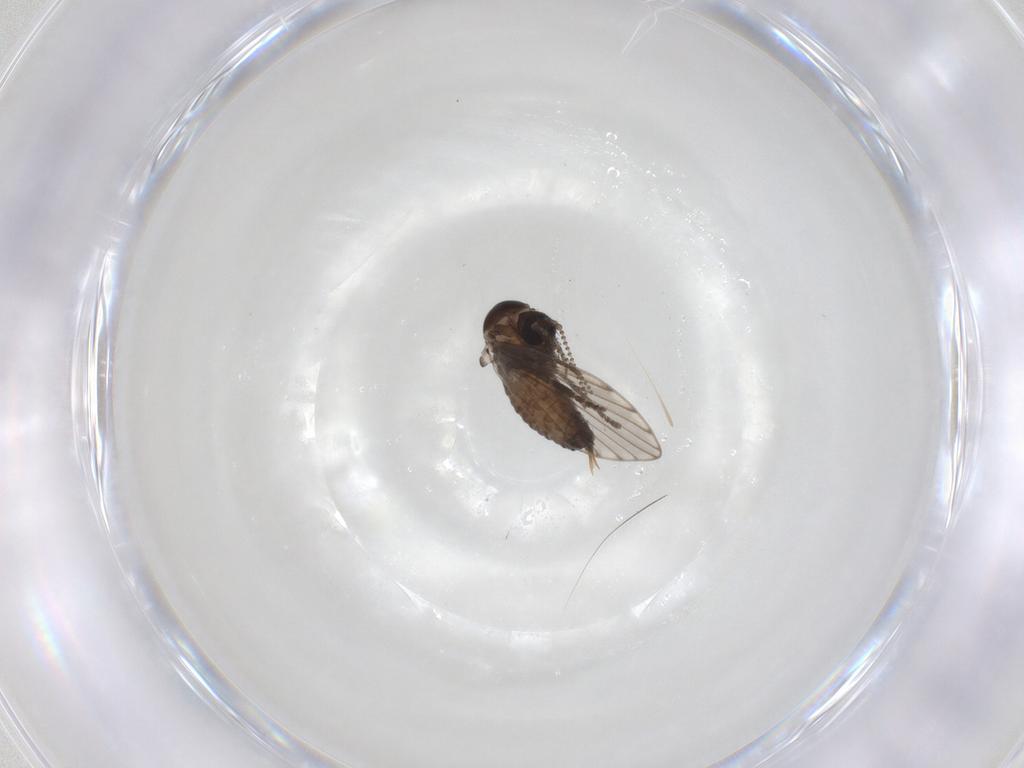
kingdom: Animalia
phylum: Arthropoda
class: Insecta
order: Diptera
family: Psychodidae
